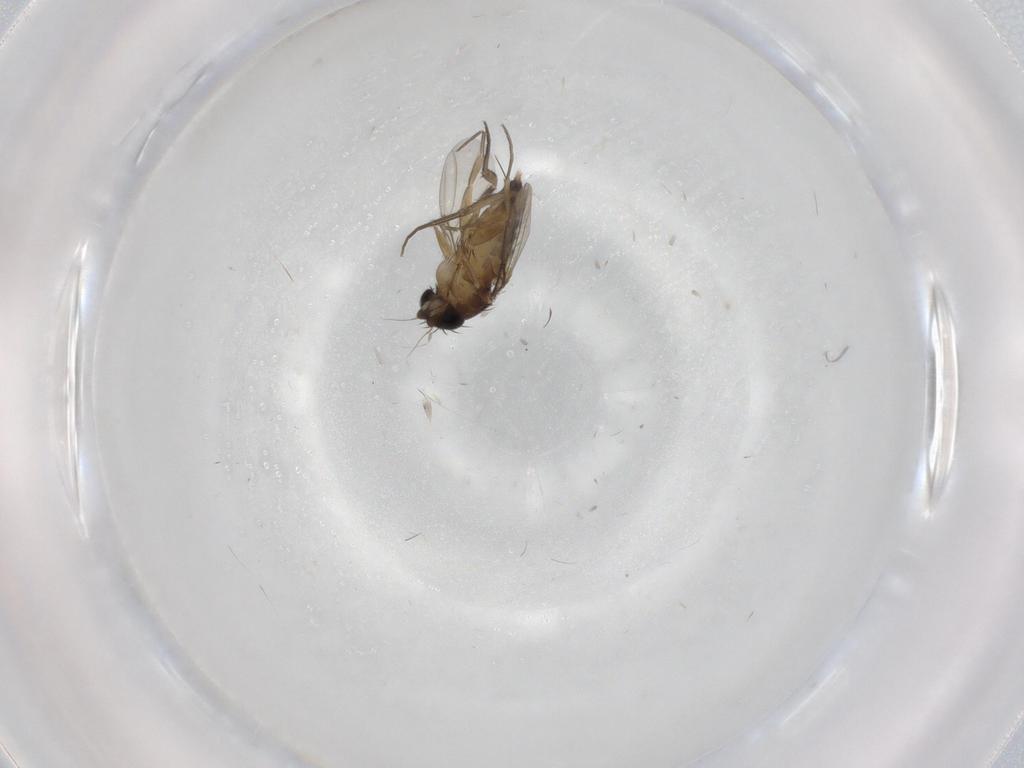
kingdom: Animalia
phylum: Arthropoda
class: Insecta
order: Diptera
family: Phoridae
